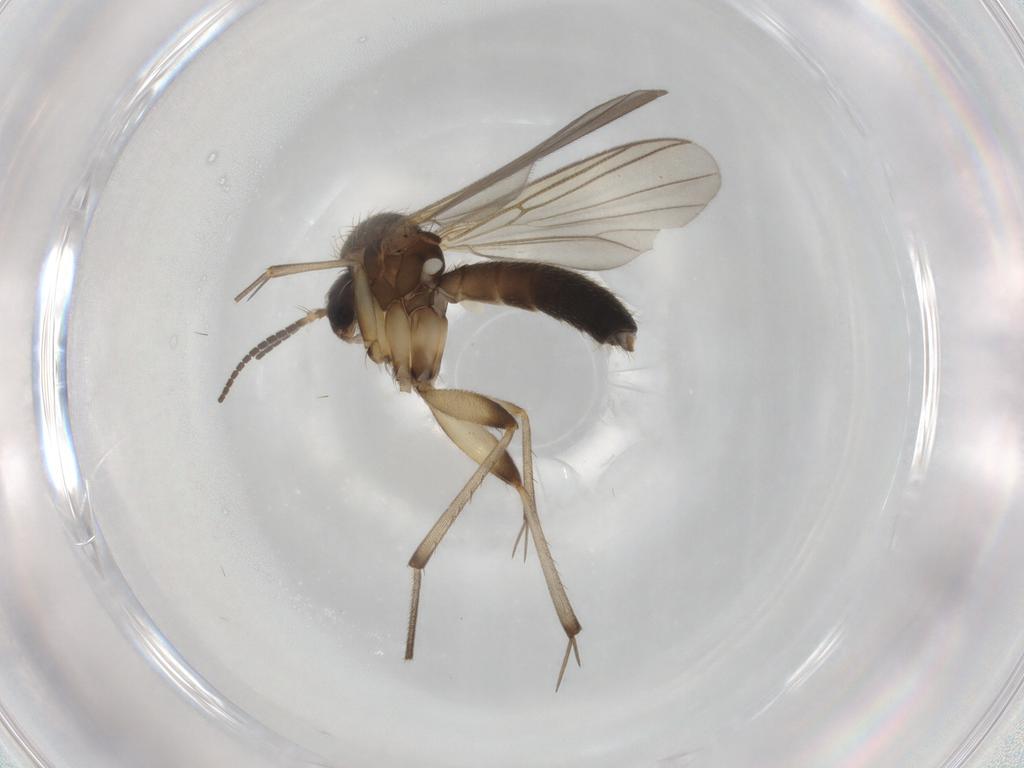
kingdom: Animalia
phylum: Arthropoda
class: Insecta
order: Diptera
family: Mycetophilidae
